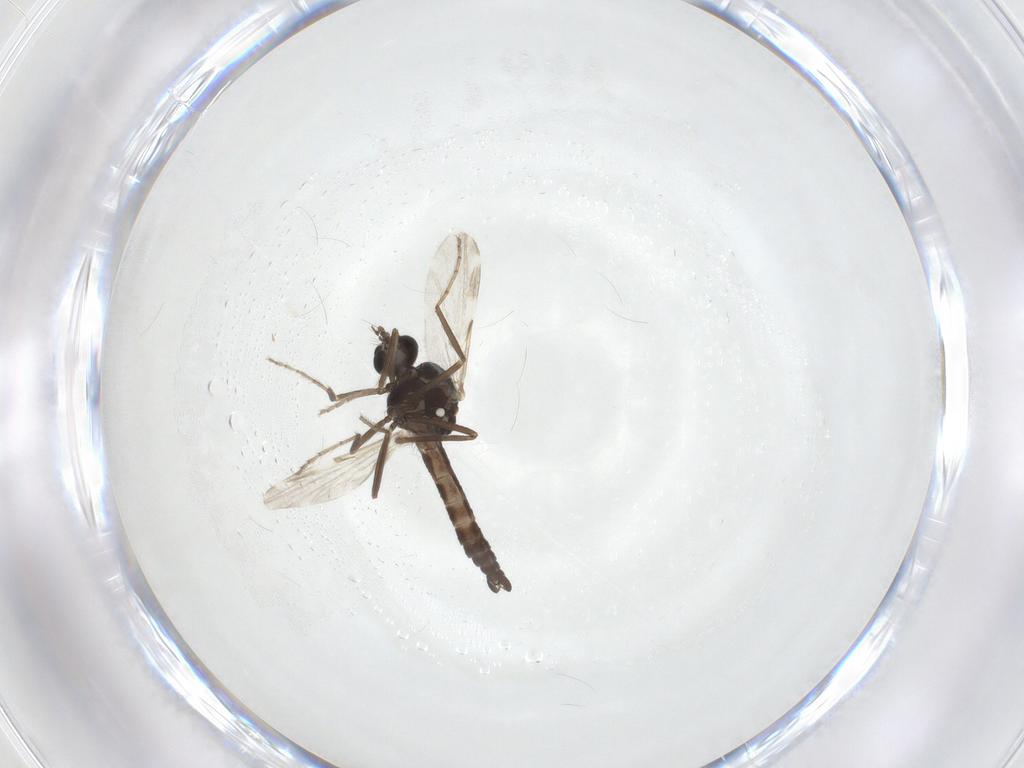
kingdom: Animalia
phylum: Arthropoda
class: Insecta
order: Diptera
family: Ceratopogonidae
